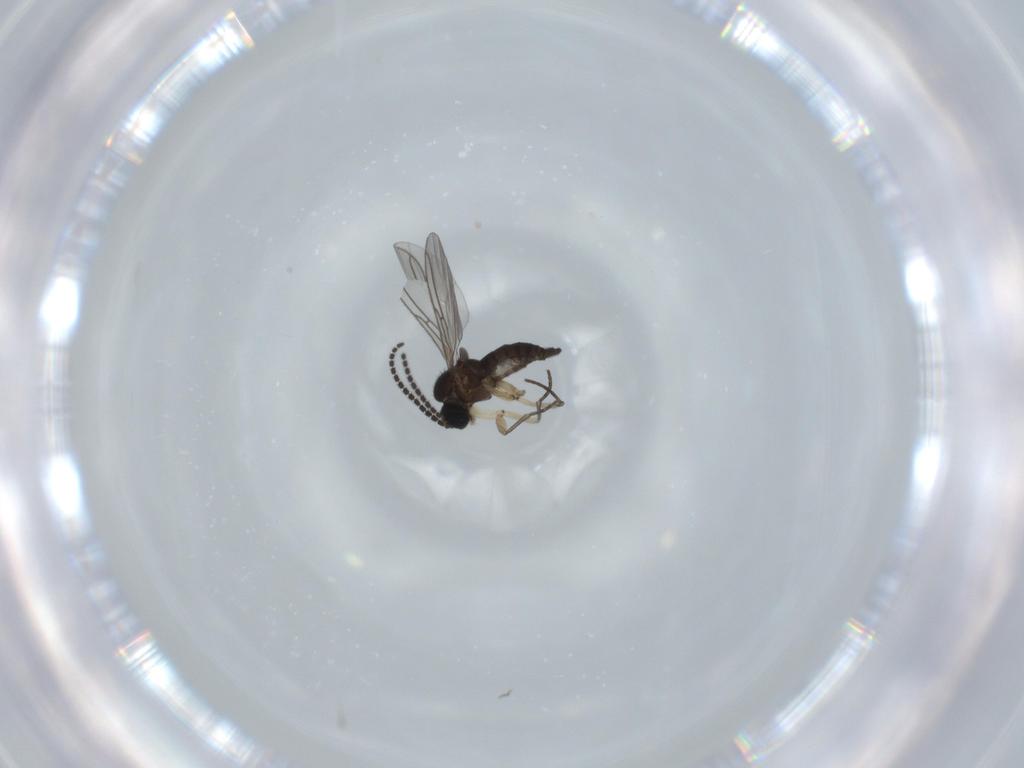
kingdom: Animalia
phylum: Arthropoda
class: Insecta
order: Diptera
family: Sciaridae
